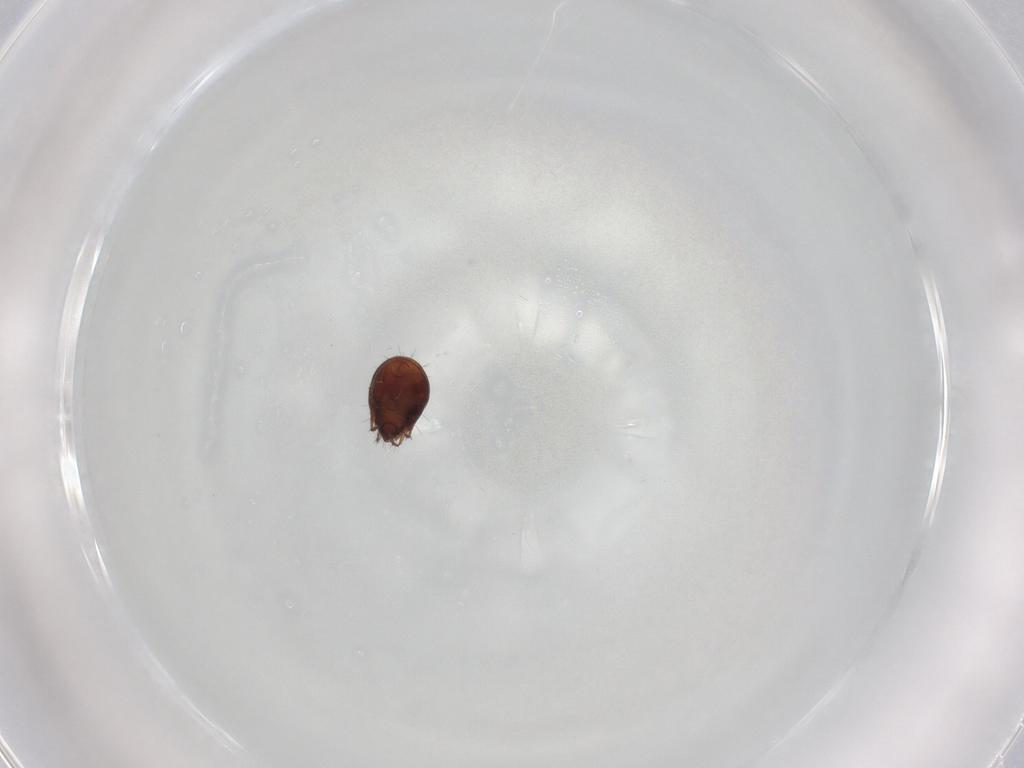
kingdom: Animalia
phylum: Arthropoda
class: Arachnida
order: Sarcoptiformes
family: Humerobatidae
